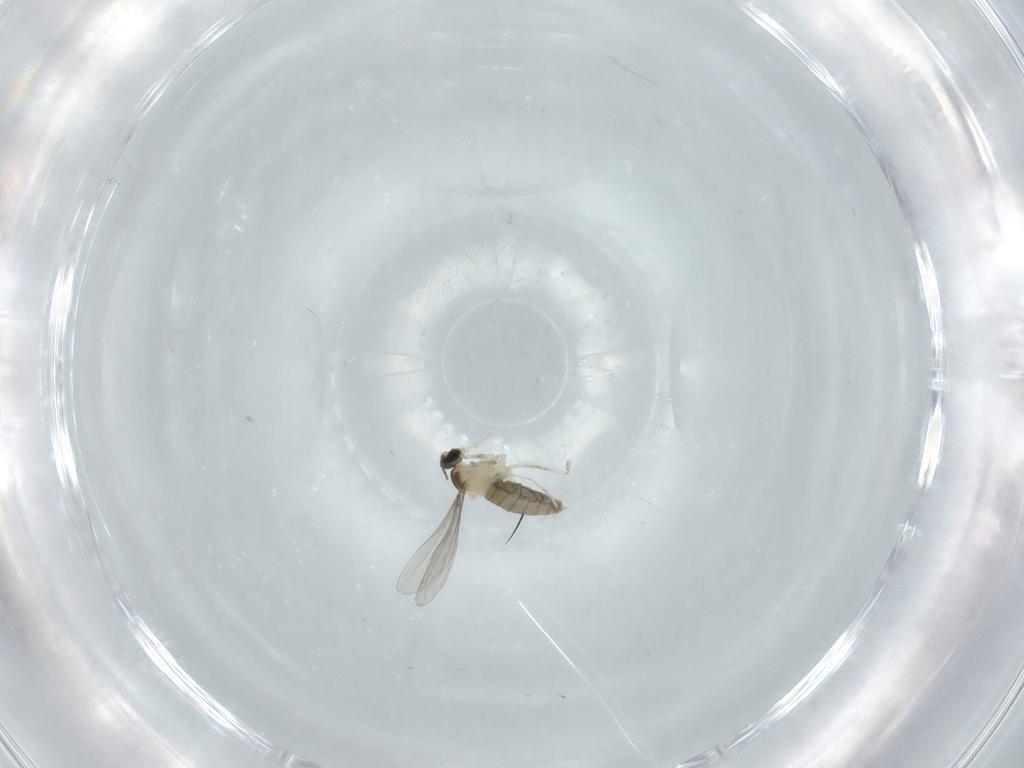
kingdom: Animalia
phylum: Arthropoda
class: Insecta
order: Diptera
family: Cecidomyiidae
